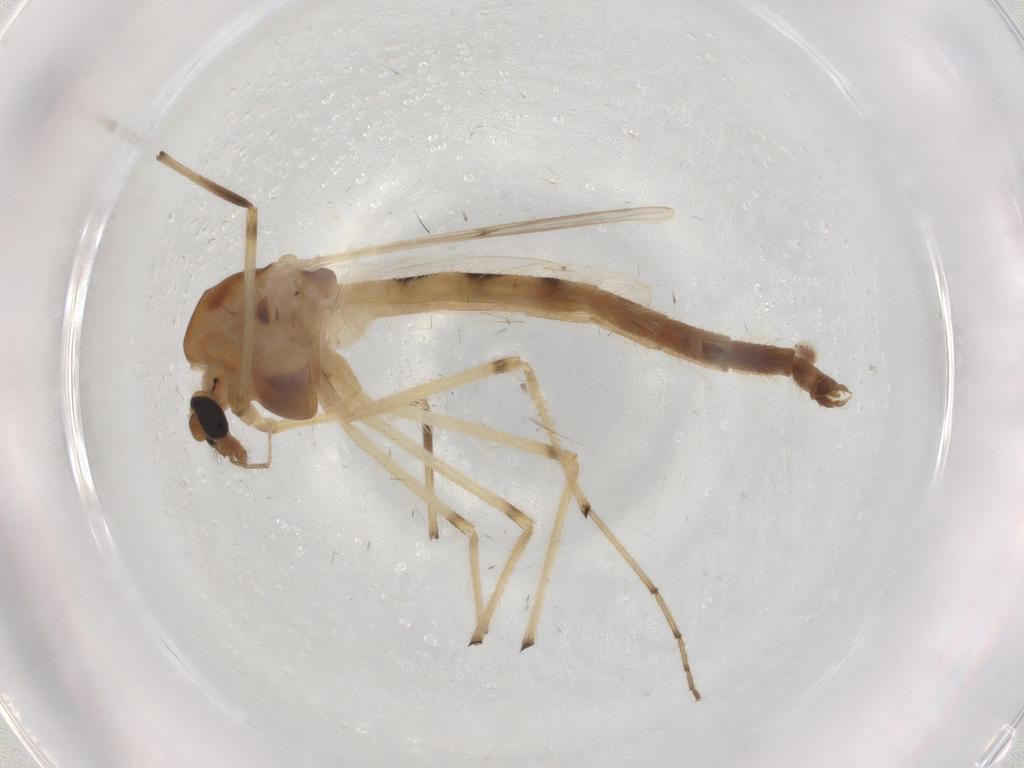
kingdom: Animalia
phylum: Arthropoda
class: Insecta
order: Diptera
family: Chironomidae
